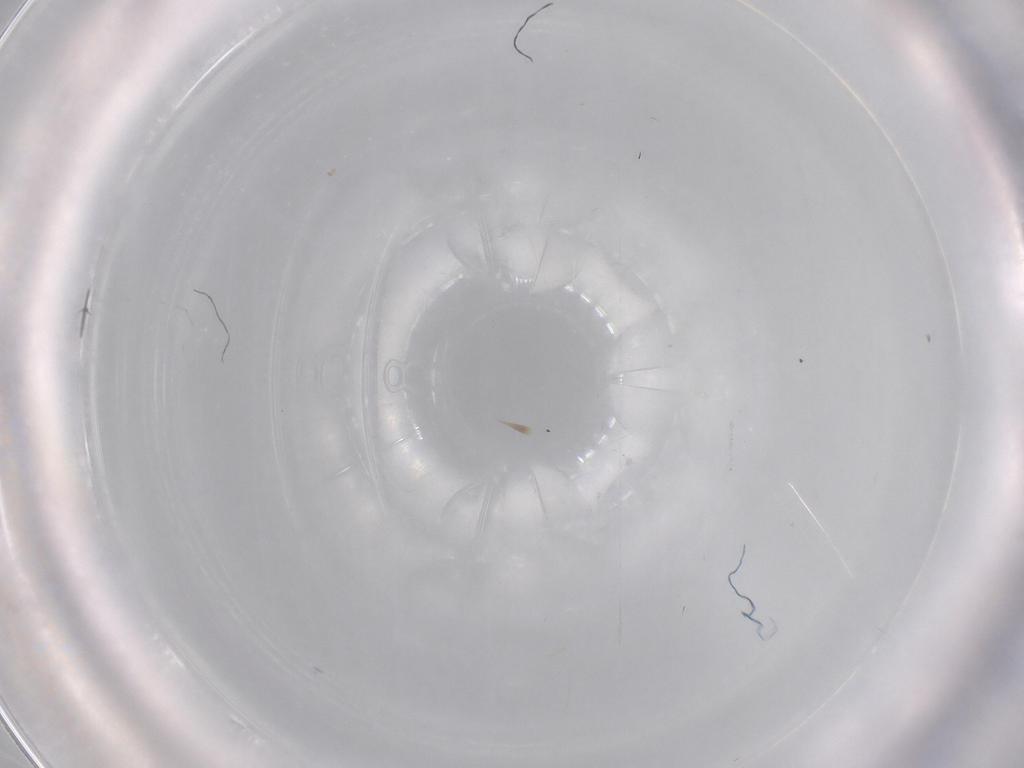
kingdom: Animalia
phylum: Arthropoda
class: Insecta
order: Diptera
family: Cecidomyiidae
